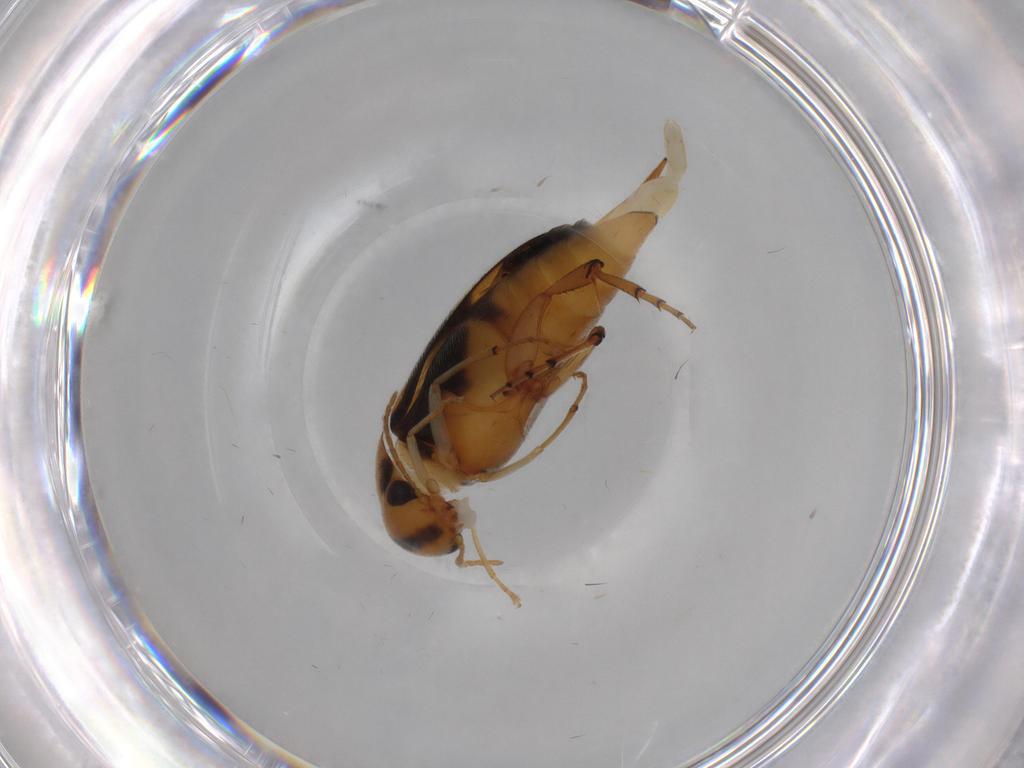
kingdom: Animalia
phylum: Arthropoda
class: Insecta
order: Coleoptera
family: Mordellidae
